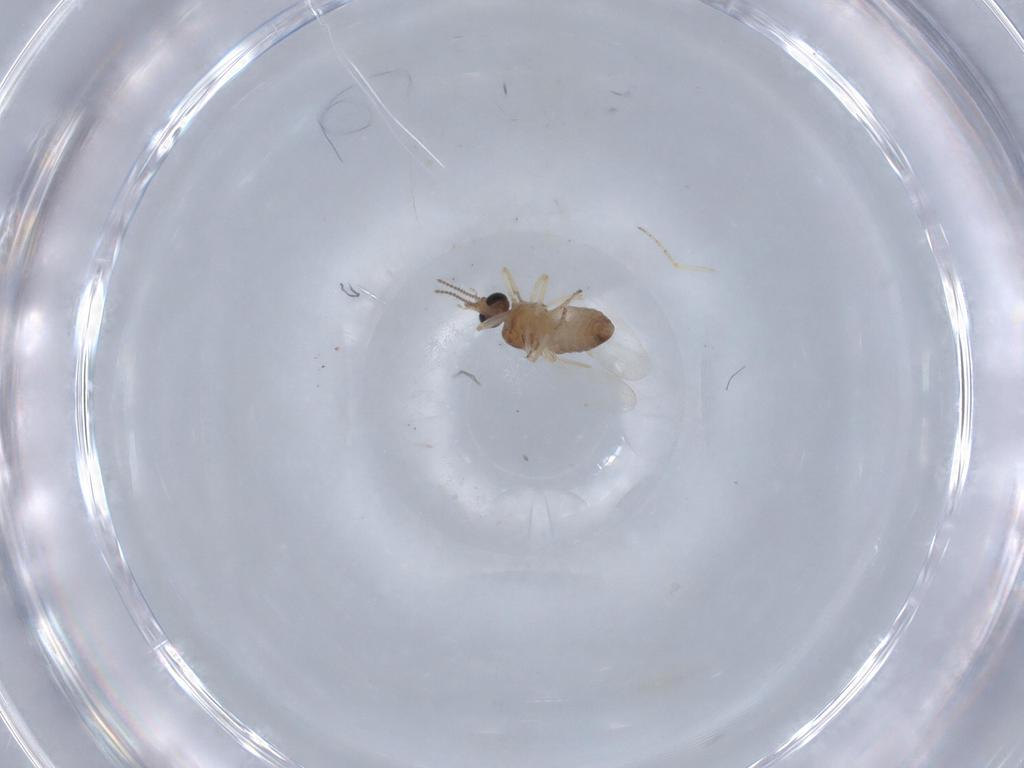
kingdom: Animalia
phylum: Arthropoda
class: Insecta
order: Diptera
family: Ceratopogonidae
